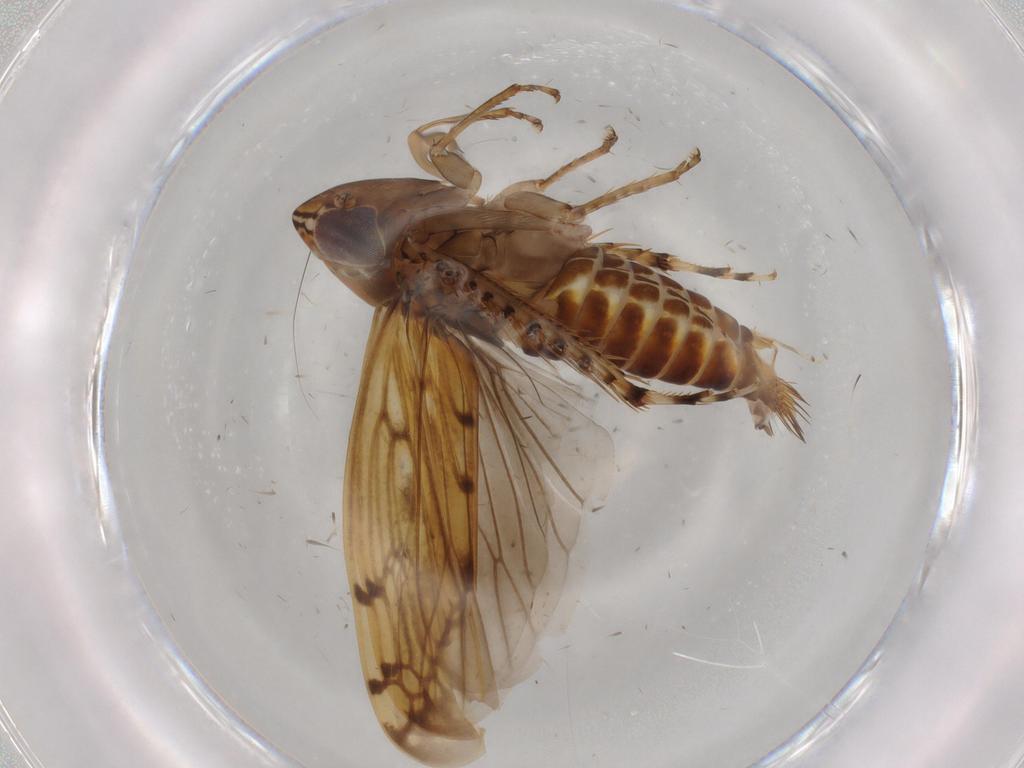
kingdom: Animalia
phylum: Arthropoda
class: Insecta
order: Hemiptera
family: Cicadellidae
